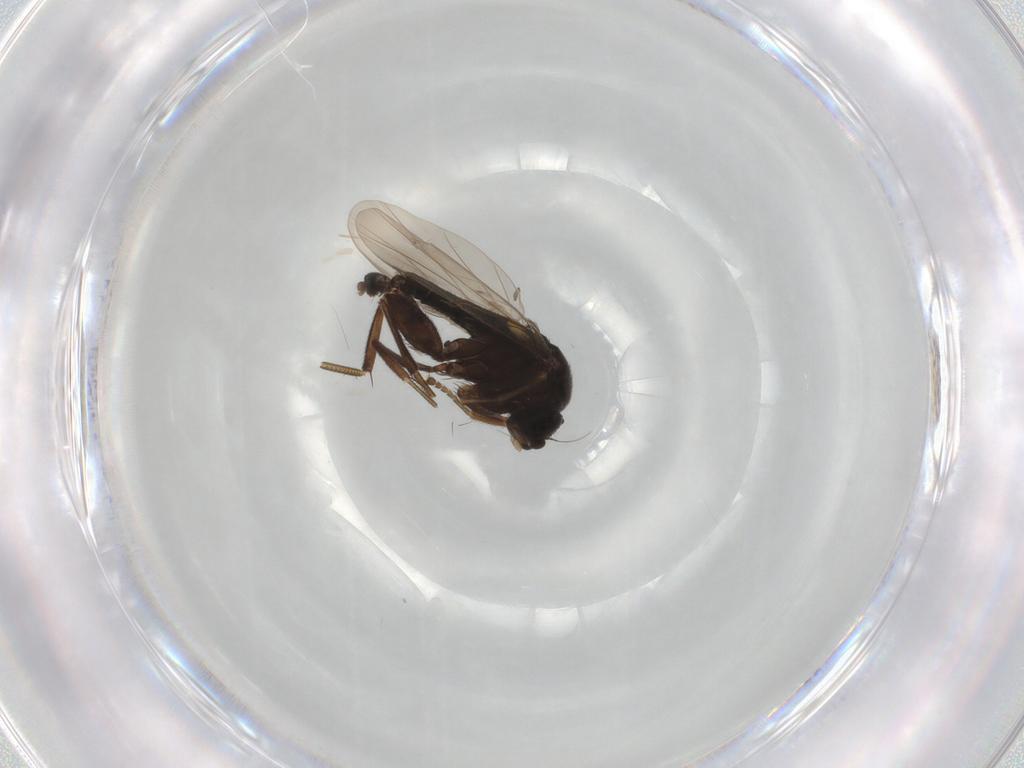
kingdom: Animalia
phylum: Arthropoda
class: Insecta
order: Diptera
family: Phoridae
